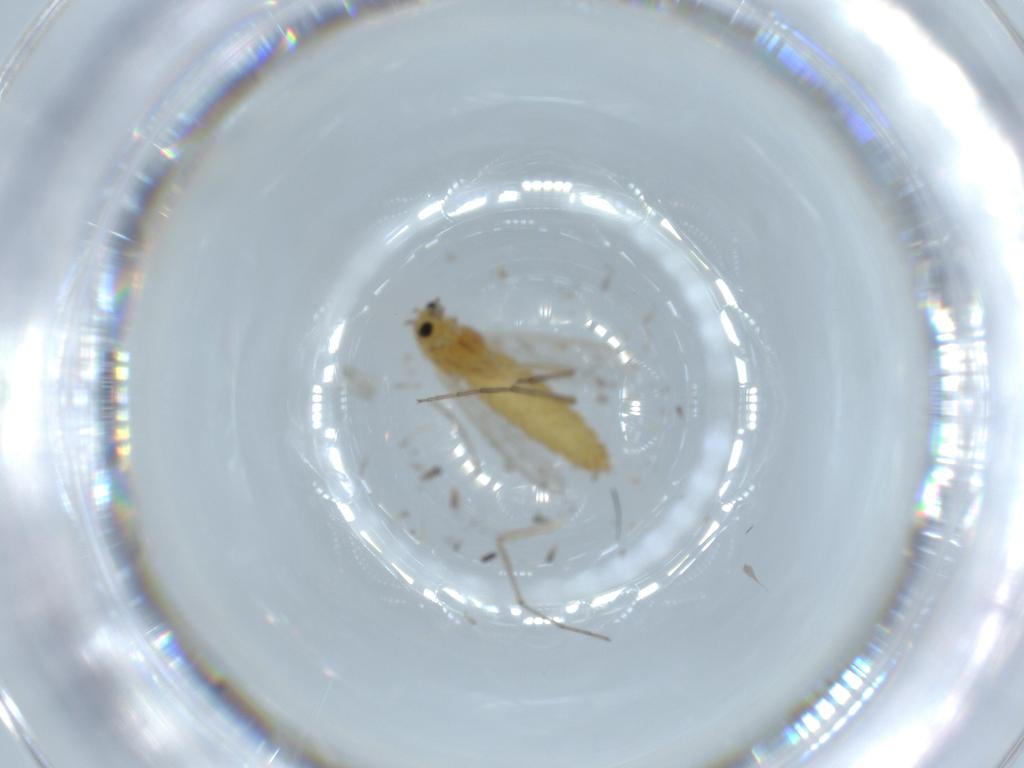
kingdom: Animalia
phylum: Arthropoda
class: Insecta
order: Diptera
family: Chironomidae
